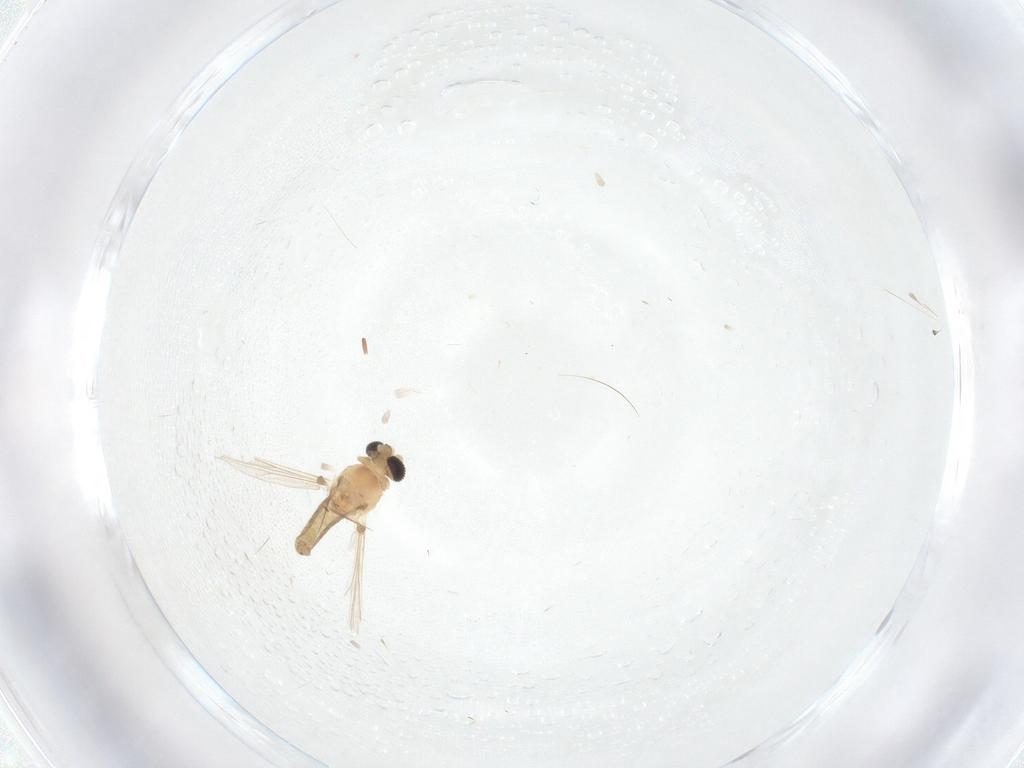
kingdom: Animalia
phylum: Arthropoda
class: Insecta
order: Diptera
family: Chironomidae
